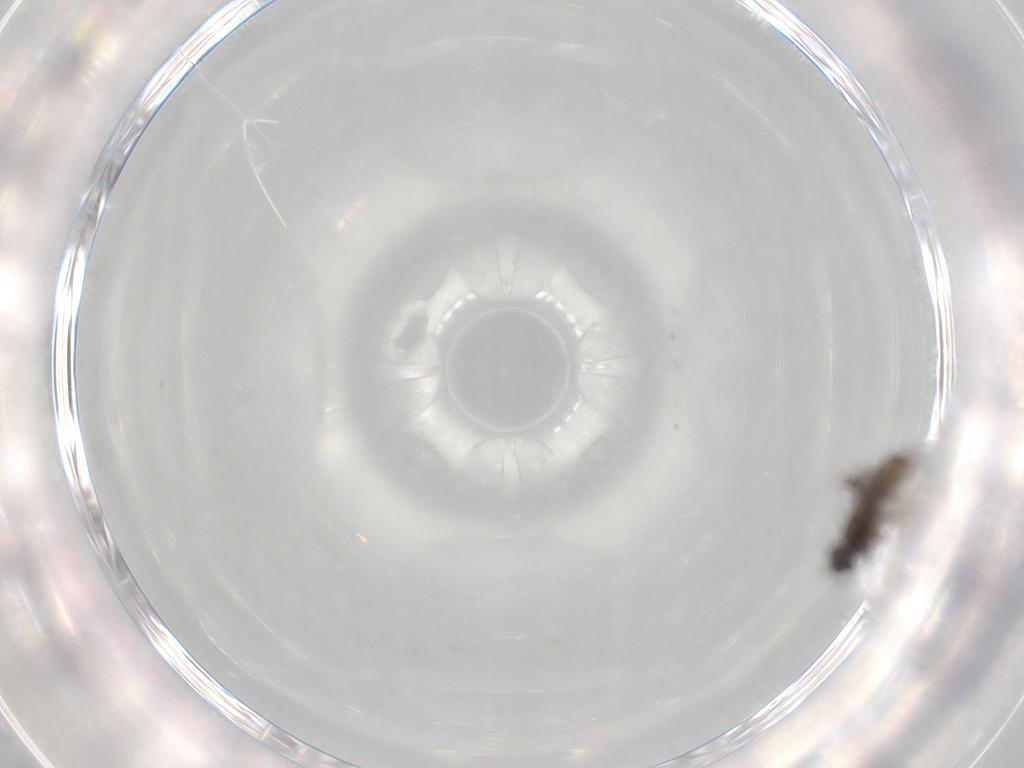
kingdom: Animalia
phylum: Arthropoda
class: Insecta
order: Diptera
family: Cecidomyiidae
